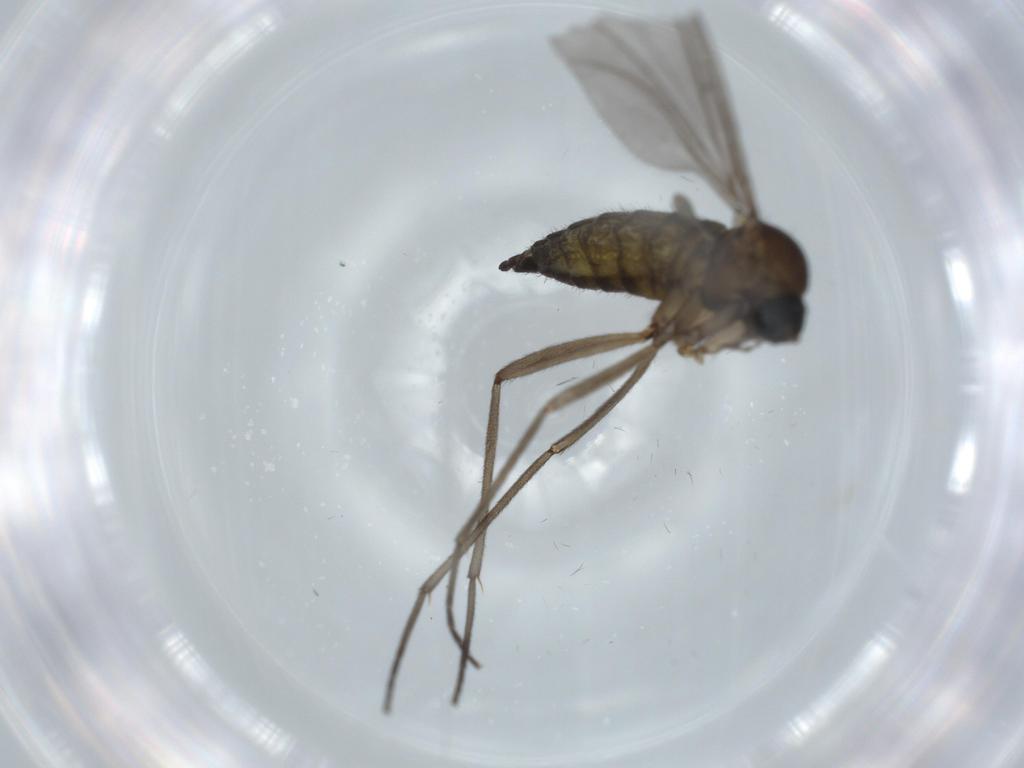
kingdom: Animalia
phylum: Arthropoda
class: Insecta
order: Diptera
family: Sciaridae
